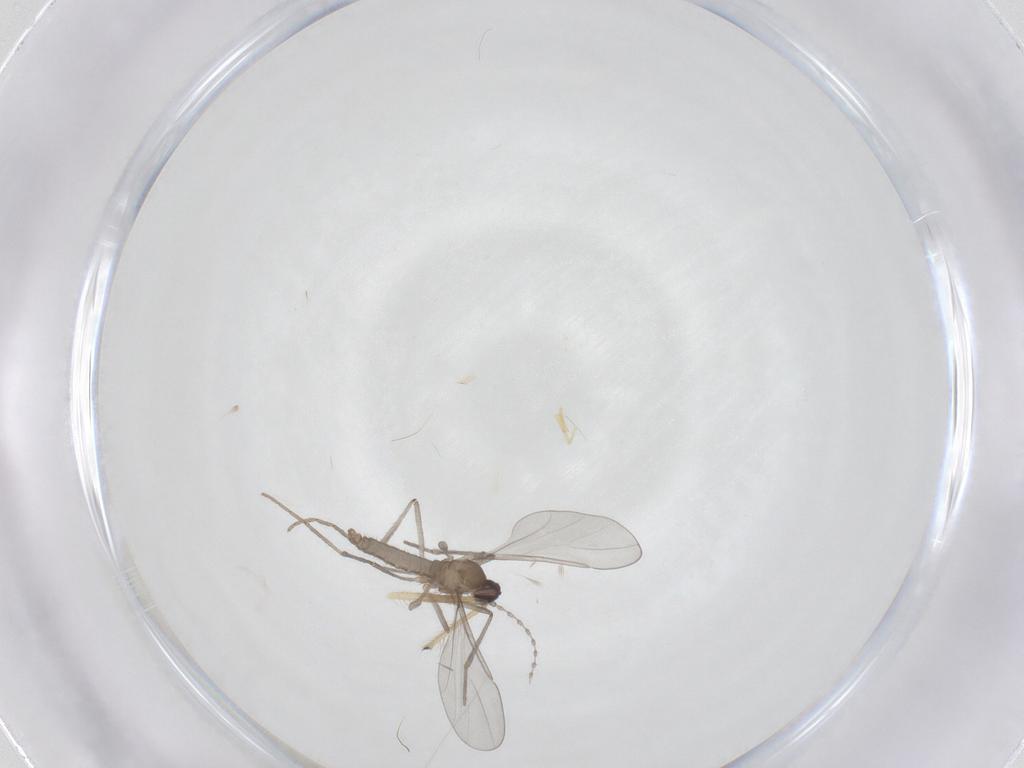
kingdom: Animalia
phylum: Arthropoda
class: Insecta
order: Diptera
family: Cecidomyiidae
